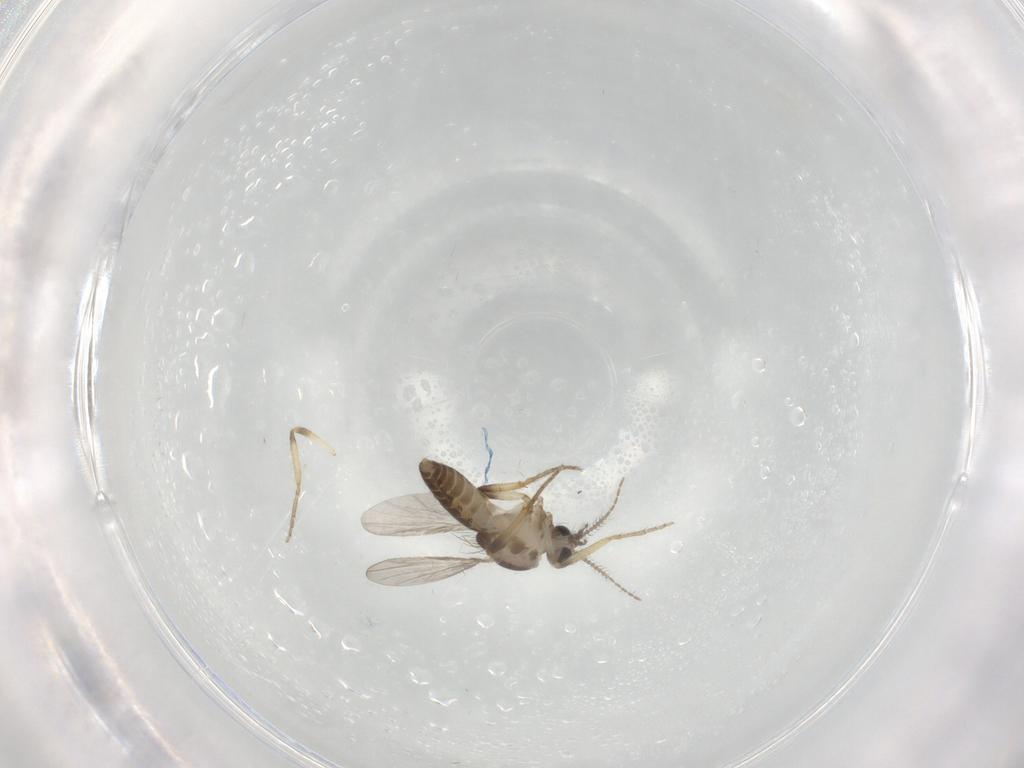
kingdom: Animalia
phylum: Arthropoda
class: Insecta
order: Diptera
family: Ceratopogonidae
